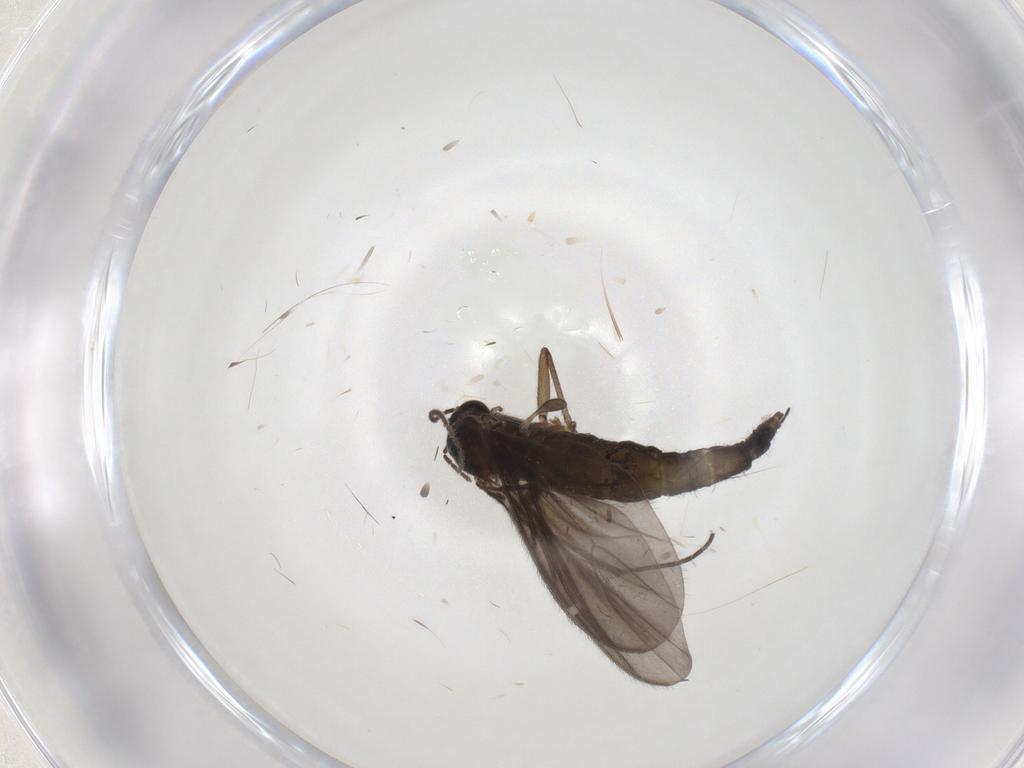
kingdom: Animalia
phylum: Arthropoda
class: Insecta
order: Diptera
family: Sciaridae
